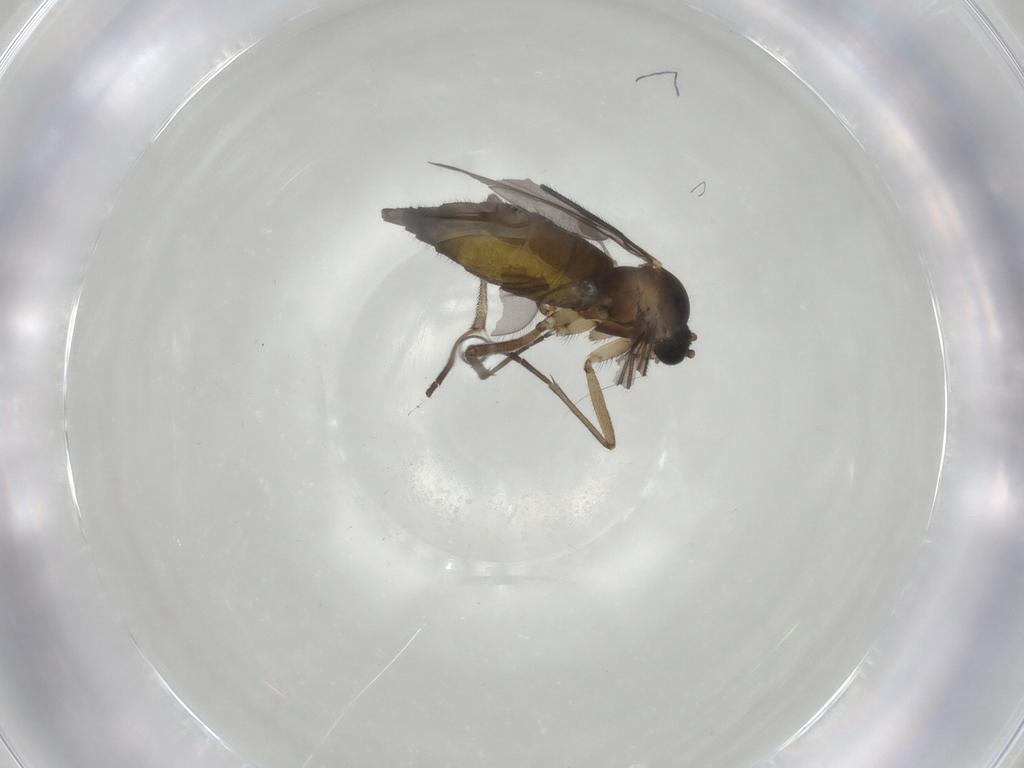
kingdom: Animalia
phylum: Arthropoda
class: Insecta
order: Diptera
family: Sciaridae
